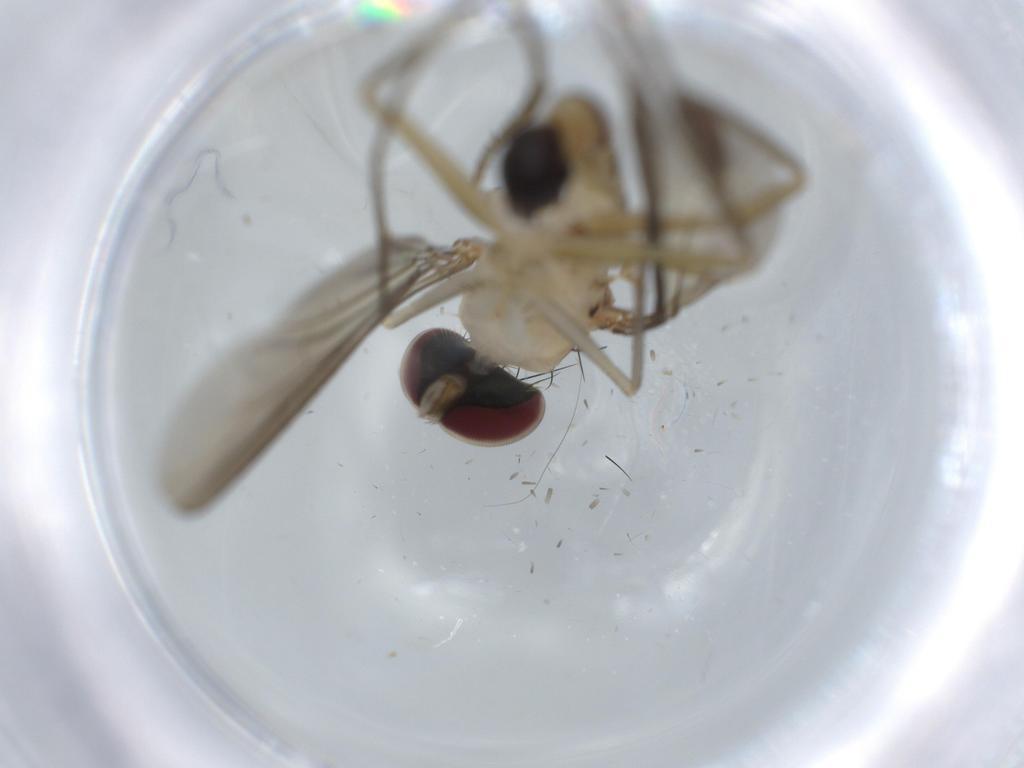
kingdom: Animalia
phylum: Arthropoda
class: Insecta
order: Diptera
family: Dolichopodidae
